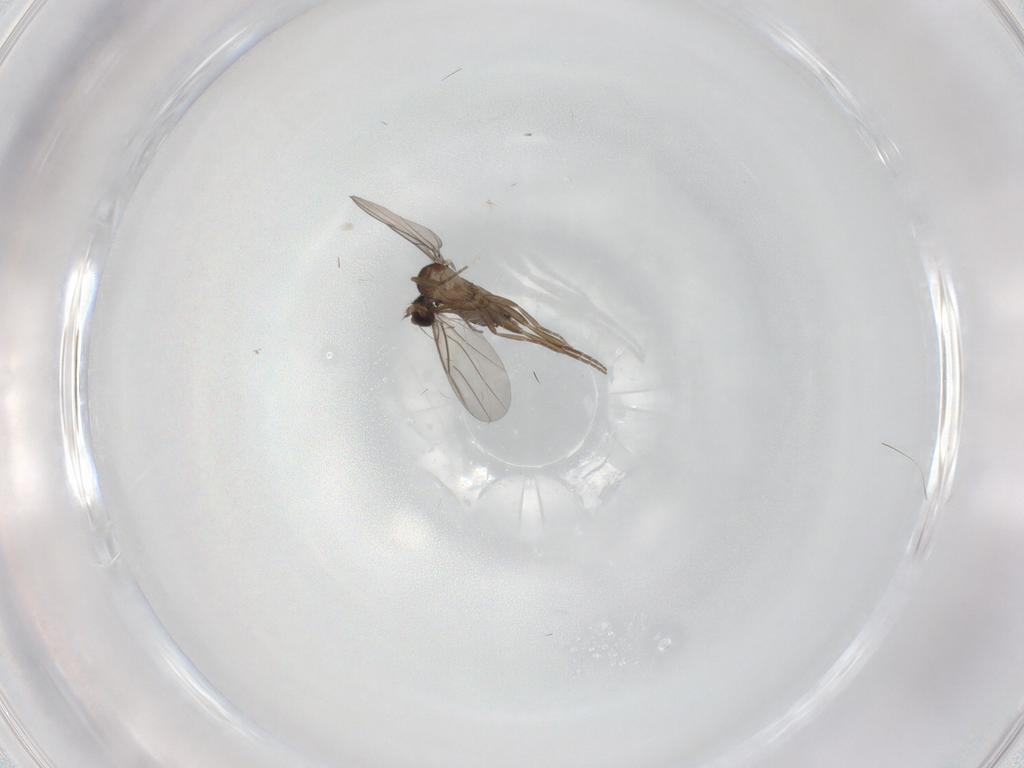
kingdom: Animalia
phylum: Arthropoda
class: Insecta
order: Diptera
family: Phoridae
